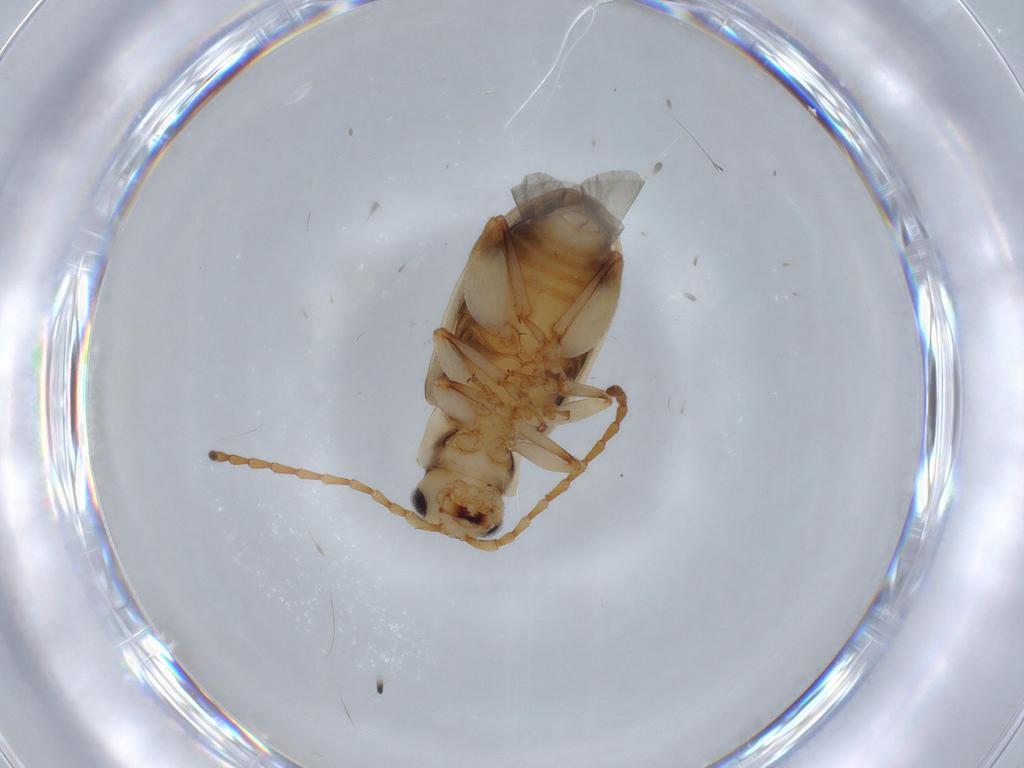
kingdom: Animalia
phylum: Arthropoda
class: Insecta
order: Coleoptera
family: Chrysomelidae
